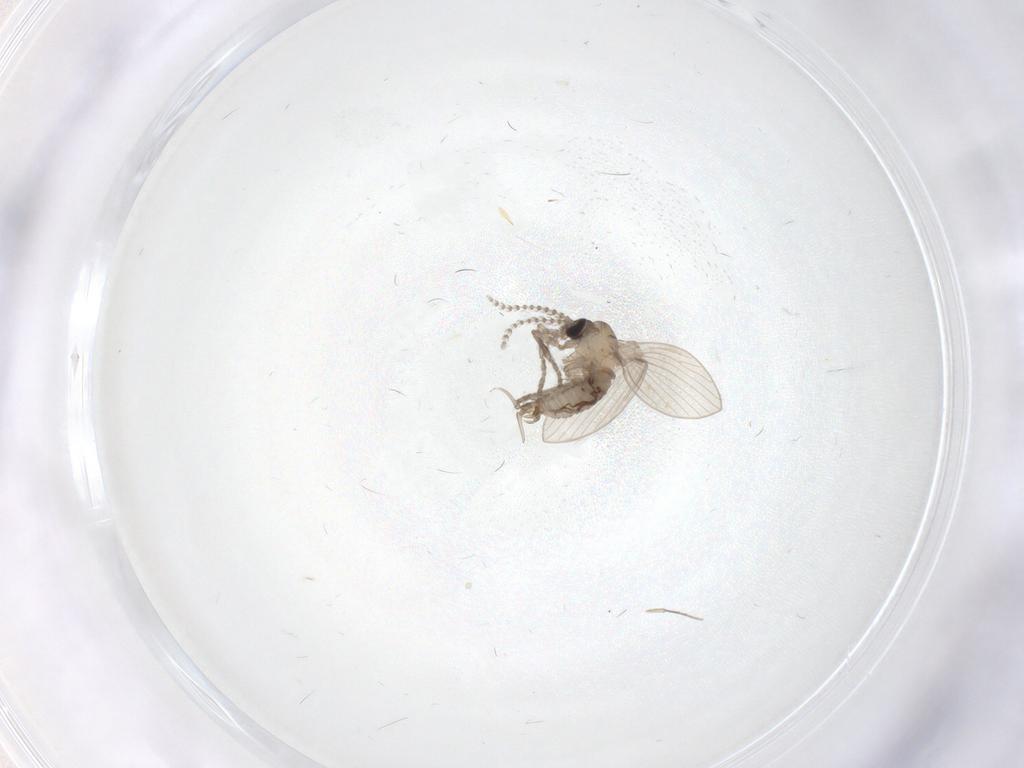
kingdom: Animalia
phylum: Arthropoda
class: Insecta
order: Diptera
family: Psychodidae
